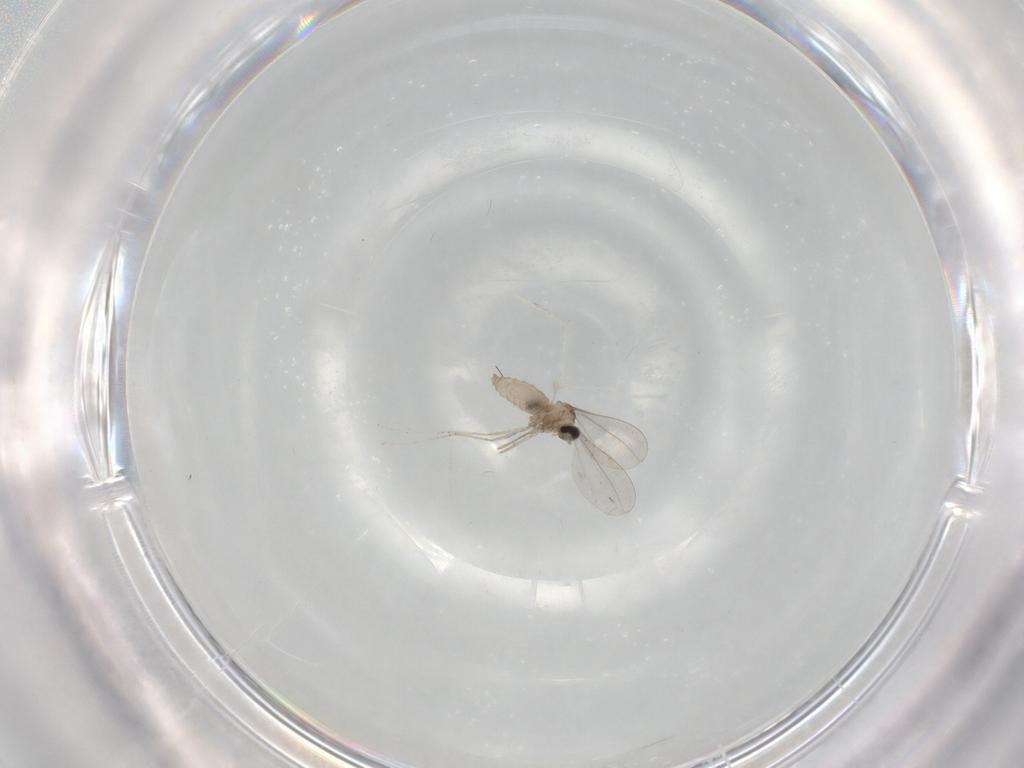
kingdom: Animalia
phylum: Arthropoda
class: Insecta
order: Diptera
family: Cecidomyiidae
